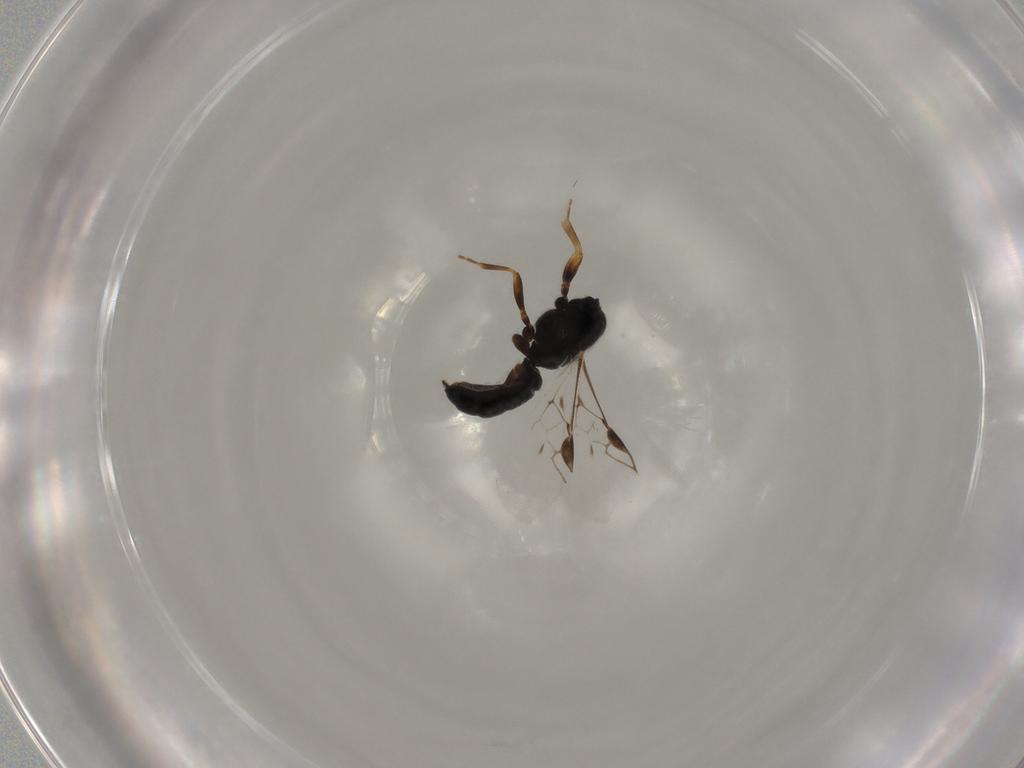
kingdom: Animalia
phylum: Arthropoda
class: Insecta
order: Hymenoptera
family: Braconidae
